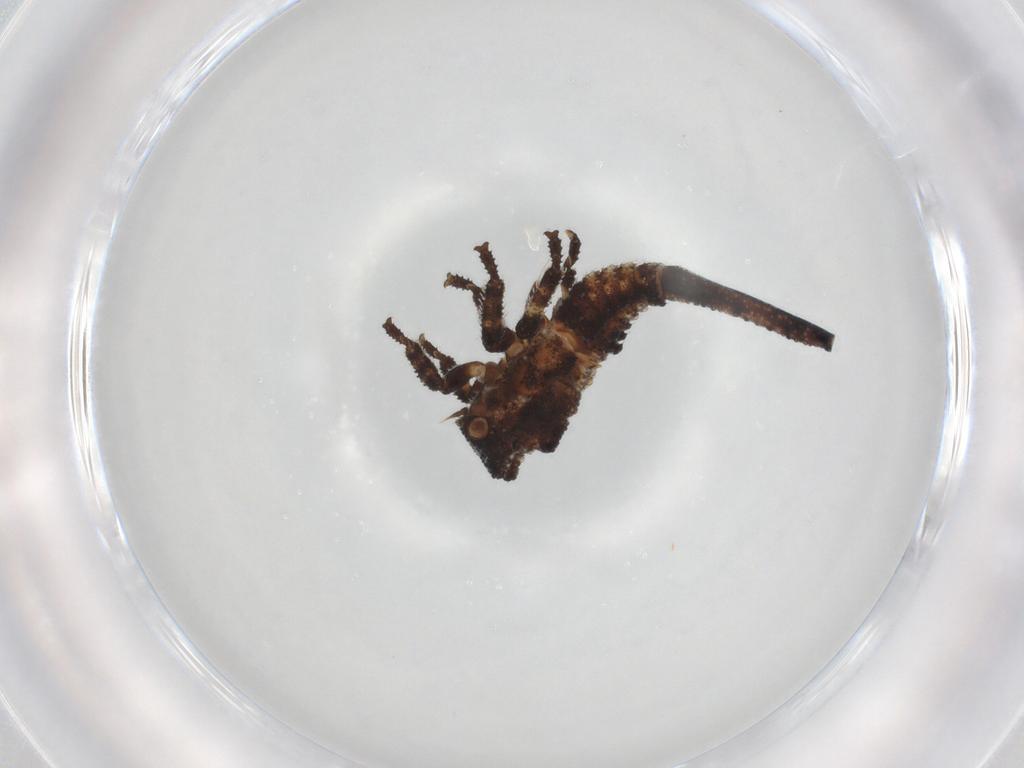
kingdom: Animalia
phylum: Arthropoda
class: Insecta
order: Hemiptera
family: Membracidae
